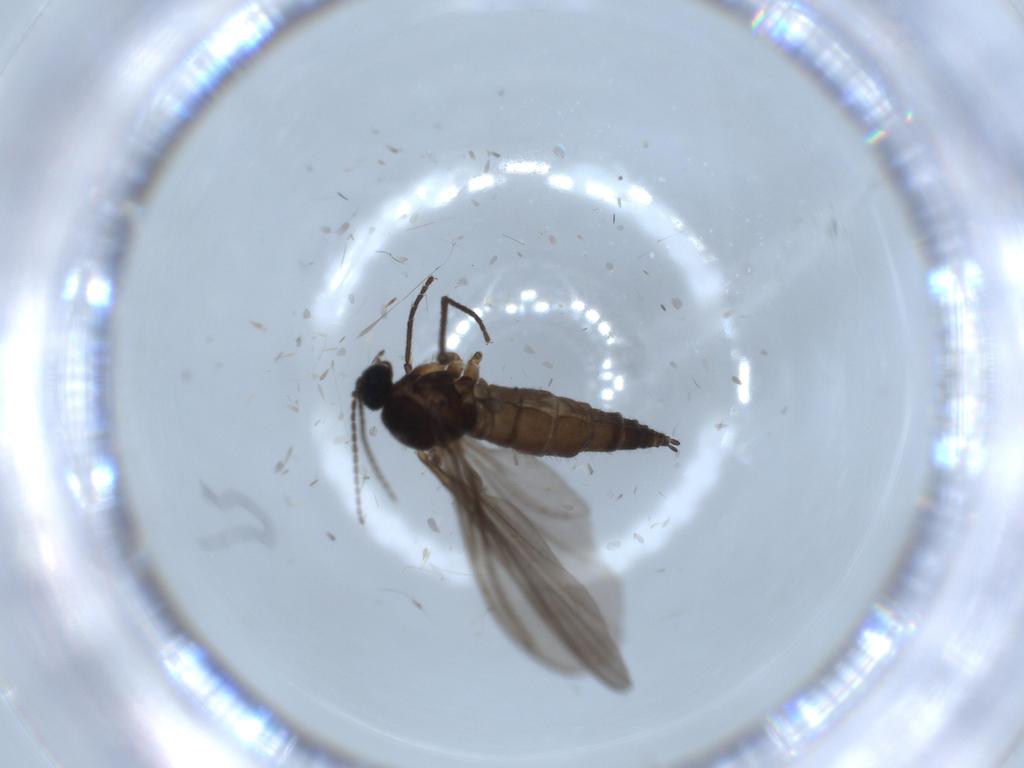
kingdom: Animalia
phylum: Arthropoda
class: Insecta
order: Diptera
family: Sciaridae
